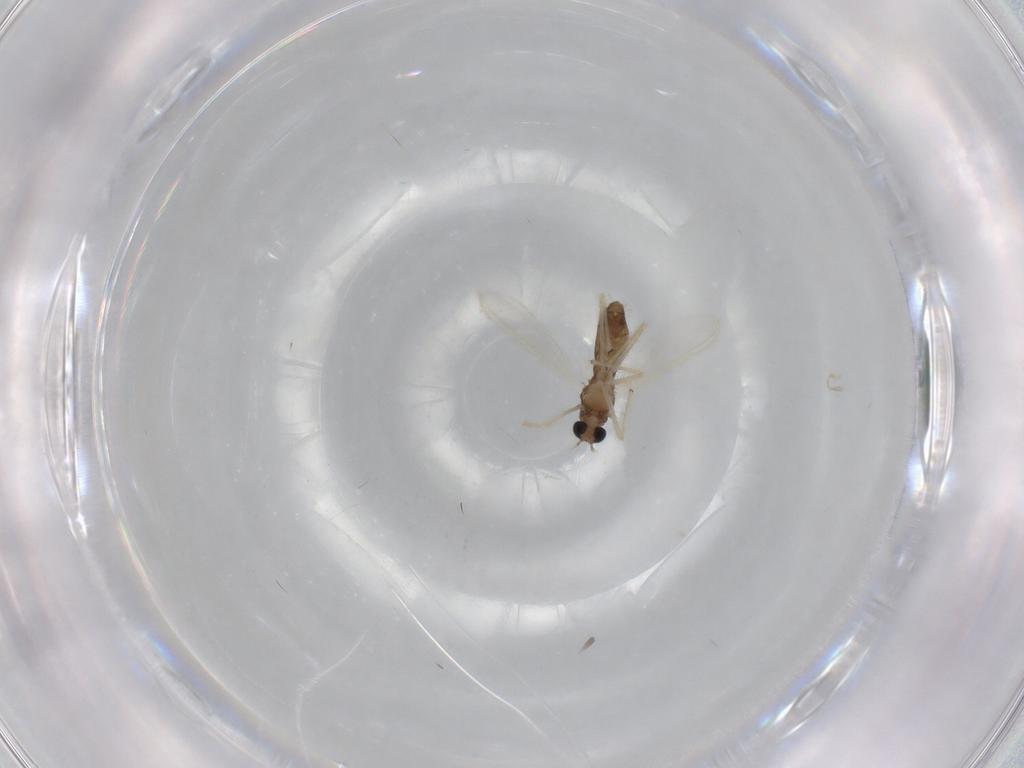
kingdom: Animalia
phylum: Arthropoda
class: Insecta
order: Diptera
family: Chironomidae
